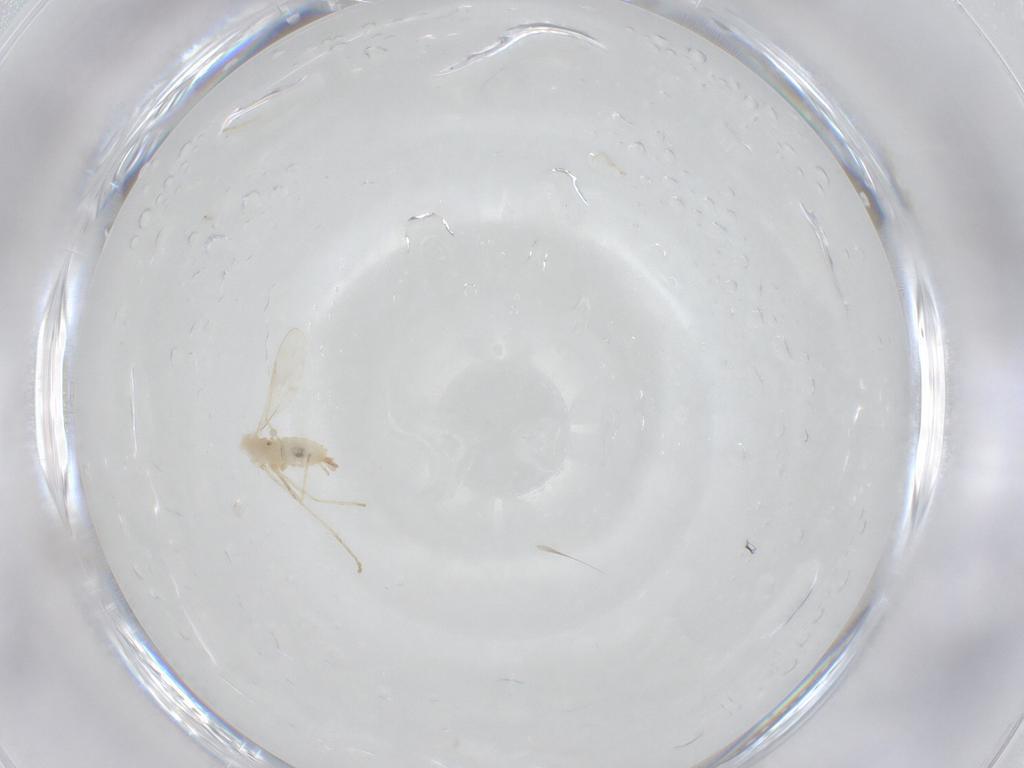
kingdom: Animalia
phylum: Arthropoda
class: Insecta
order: Diptera
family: Cecidomyiidae
